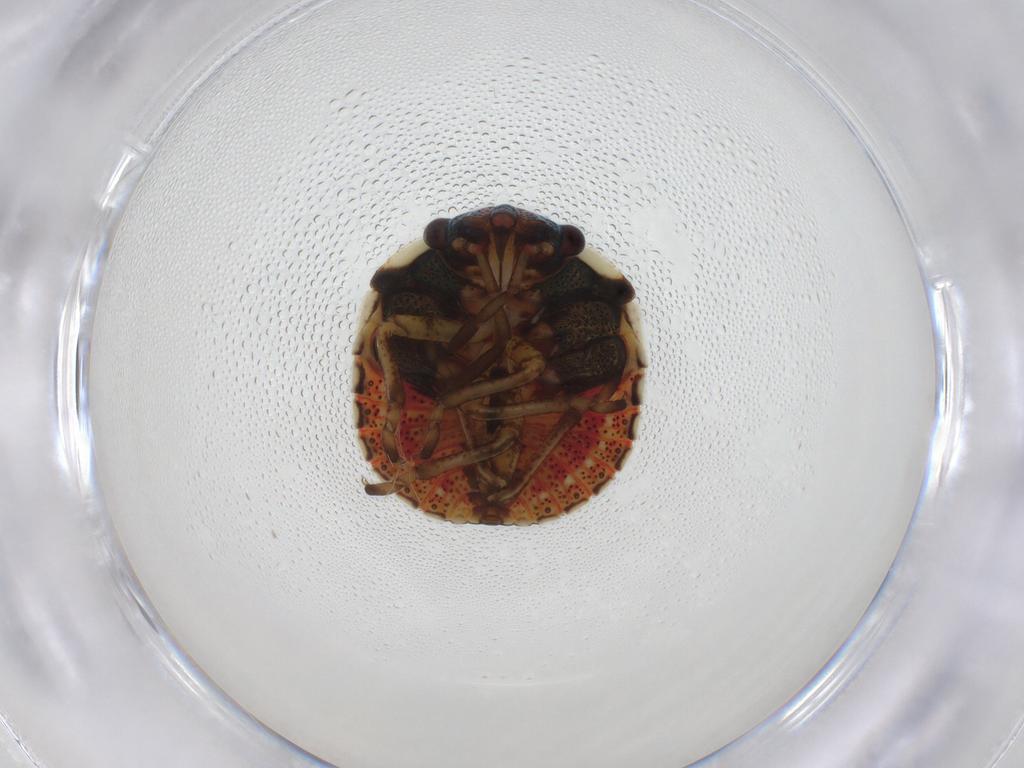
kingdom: Animalia
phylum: Arthropoda
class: Insecta
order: Hemiptera
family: Pentatomidae
